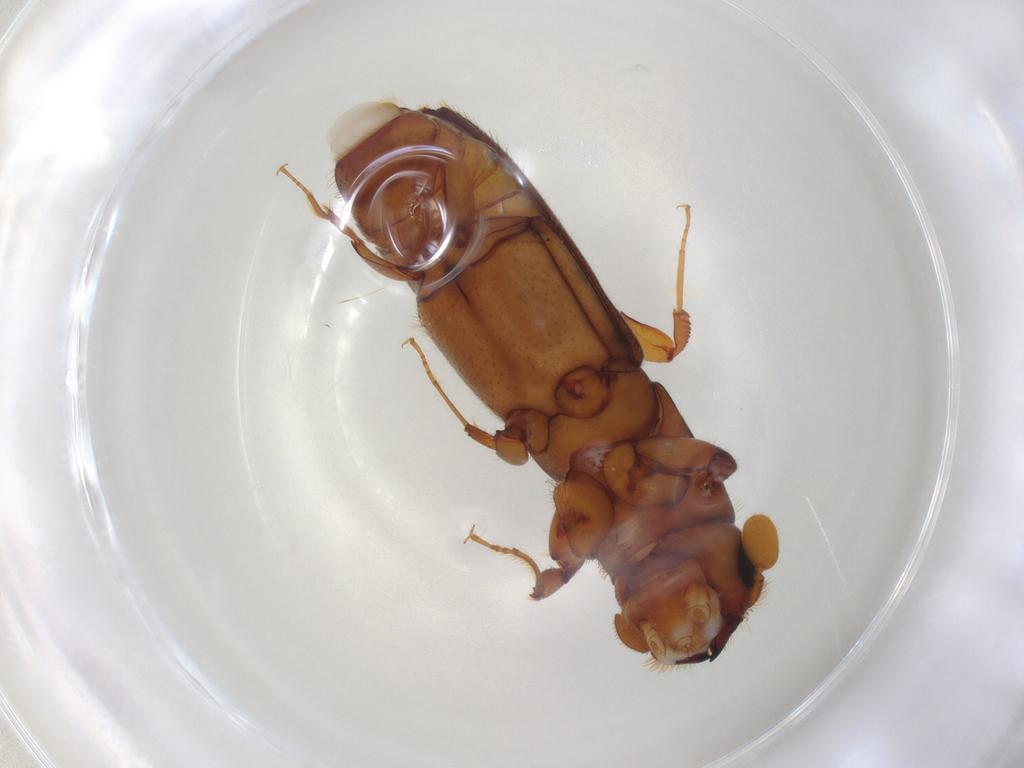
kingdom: Animalia
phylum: Arthropoda
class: Insecta
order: Coleoptera
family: Curculionidae
